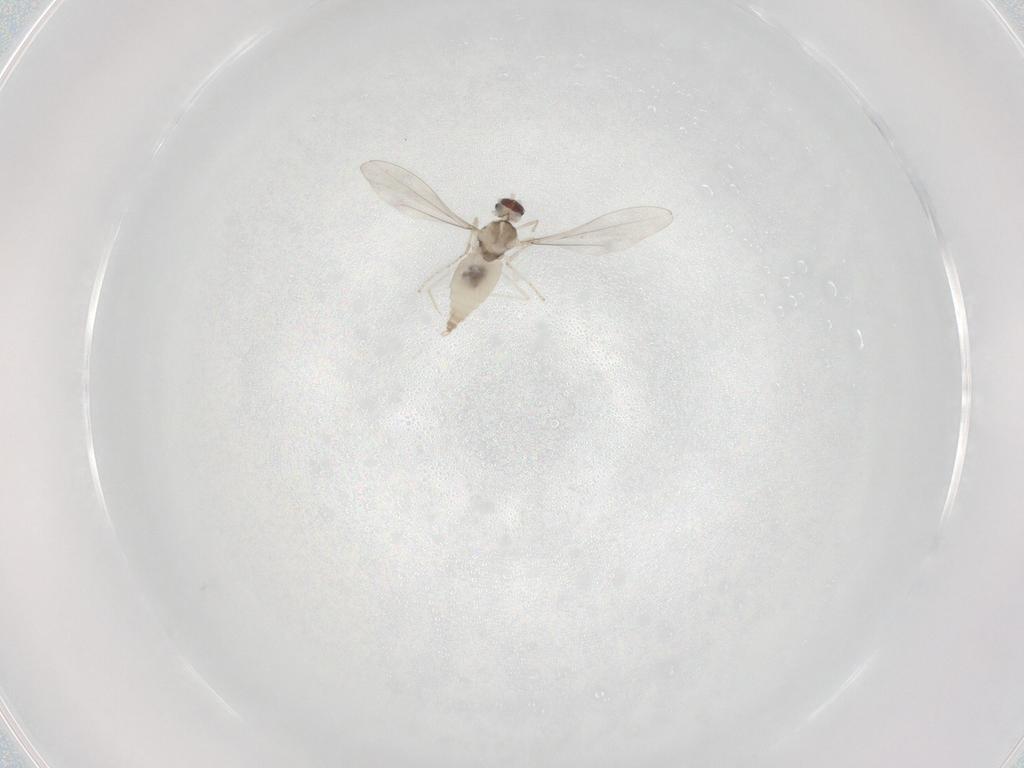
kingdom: Animalia
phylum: Arthropoda
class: Insecta
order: Diptera
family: Cecidomyiidae
